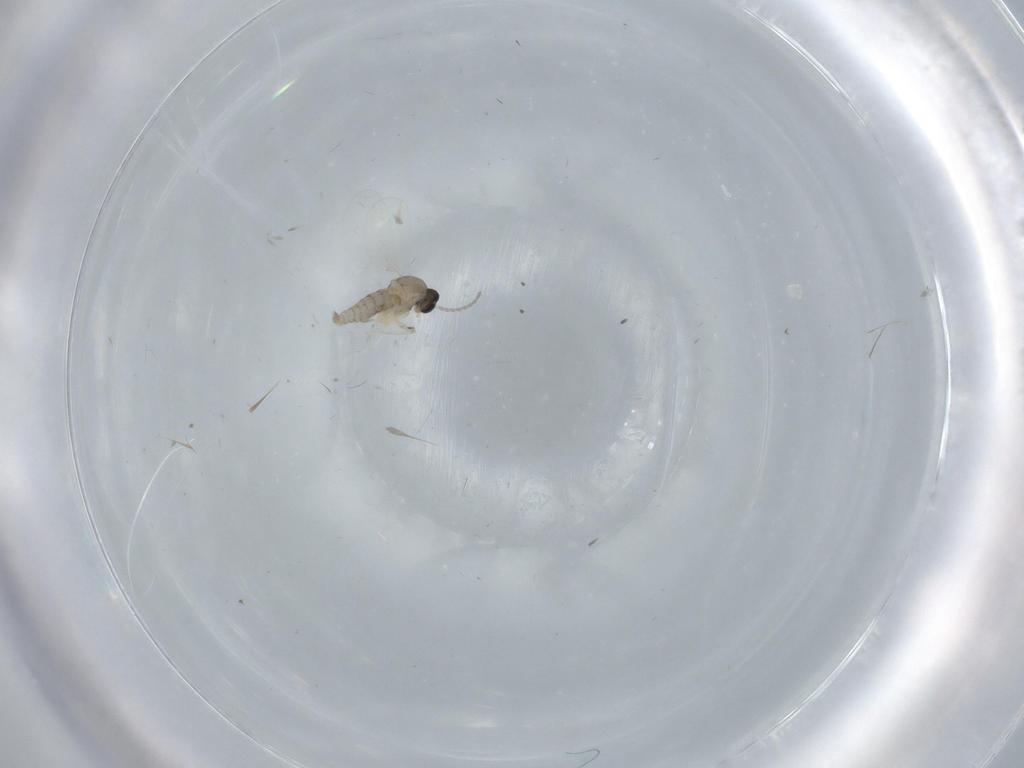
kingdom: Animalia
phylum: Arthropoda
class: Insecta
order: Diptera
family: Cecidomyiidae
